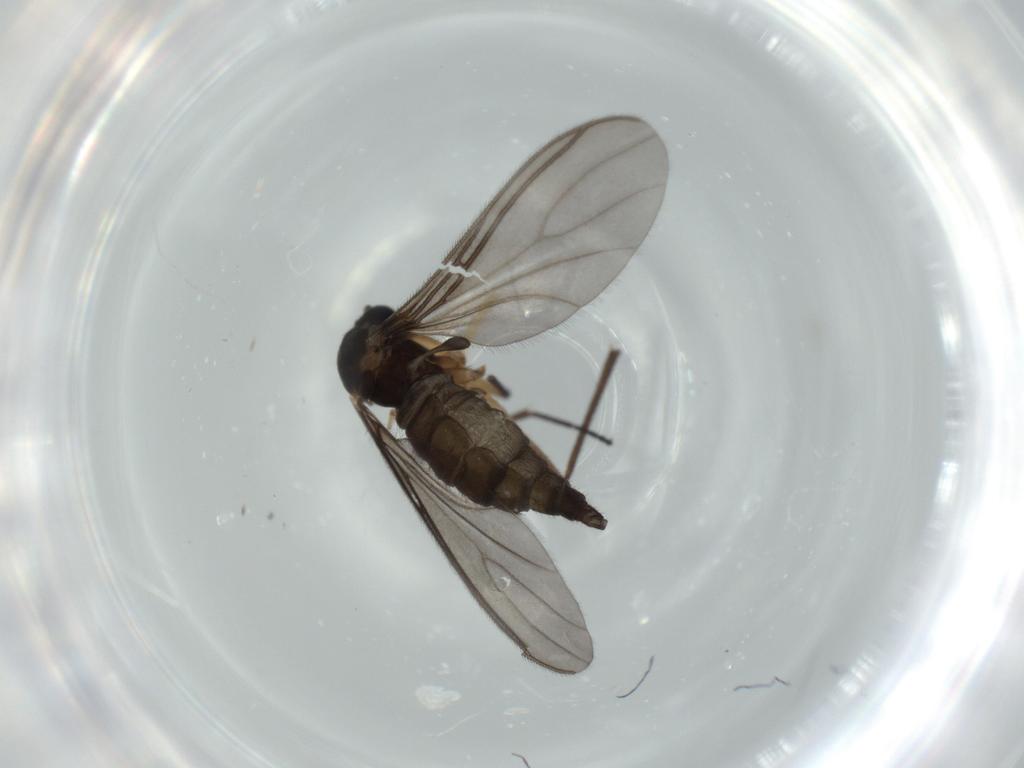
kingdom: Animalia
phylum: Arthropoda
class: Insecta
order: Diptera
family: Sciaridae
